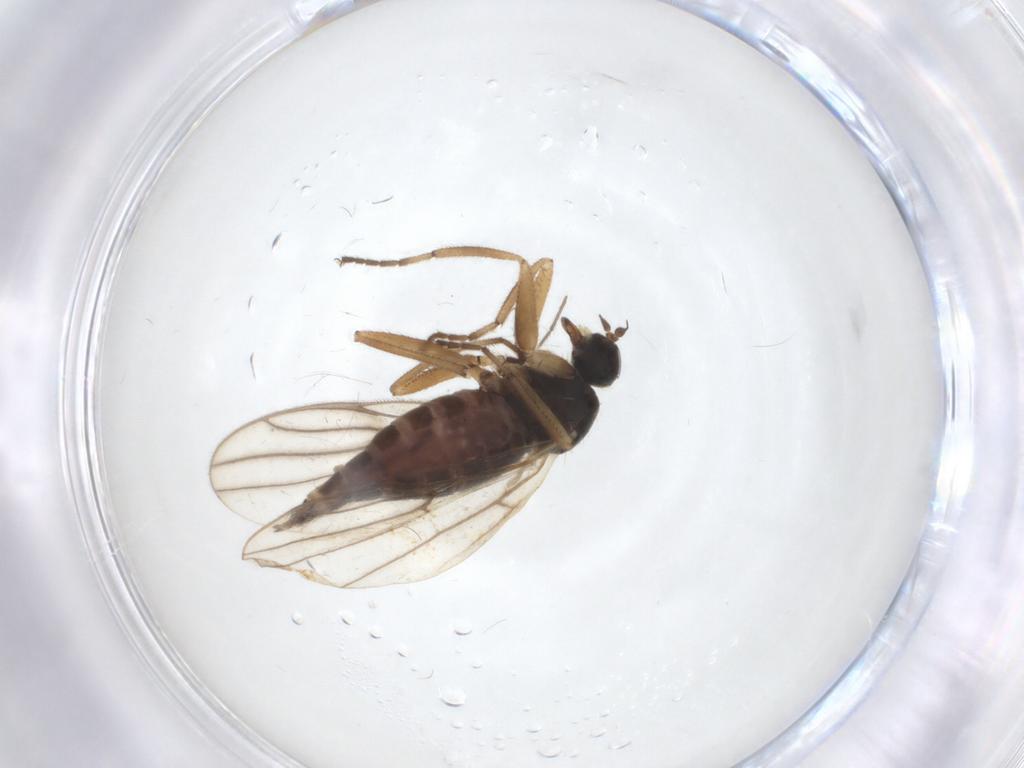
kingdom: Animalia
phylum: Arthropoda
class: Insecta
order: Diptera
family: Hybotidae
